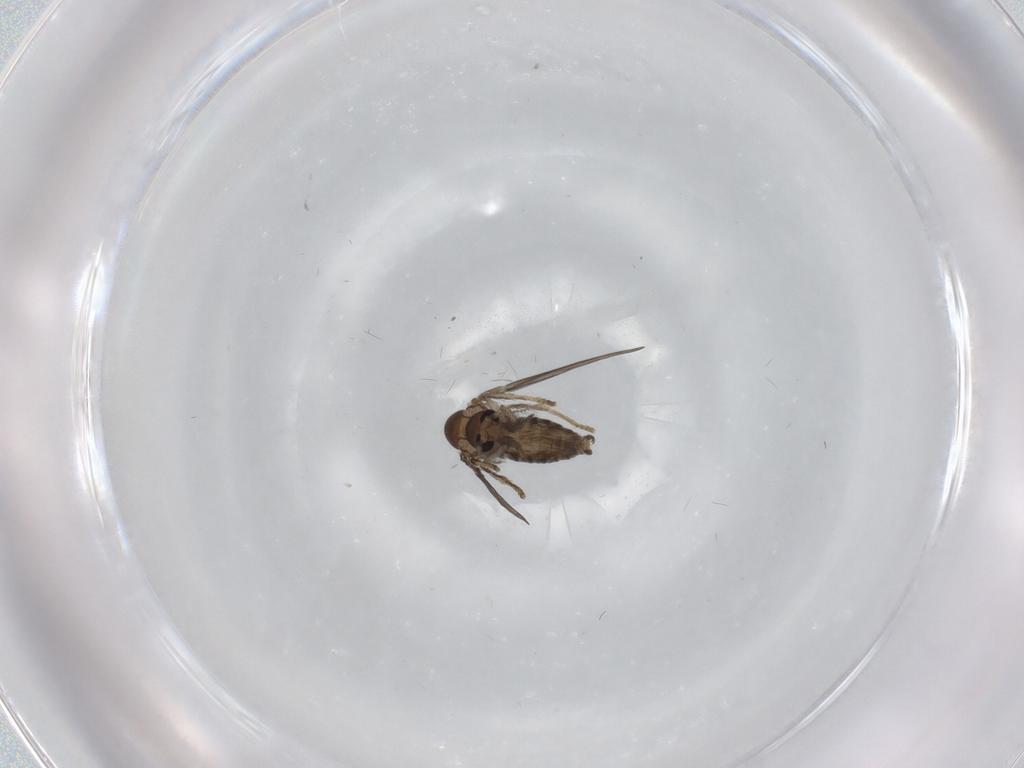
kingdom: Animalia
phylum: Arthropoda
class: Insecta
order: Diptera
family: Psychodidae
